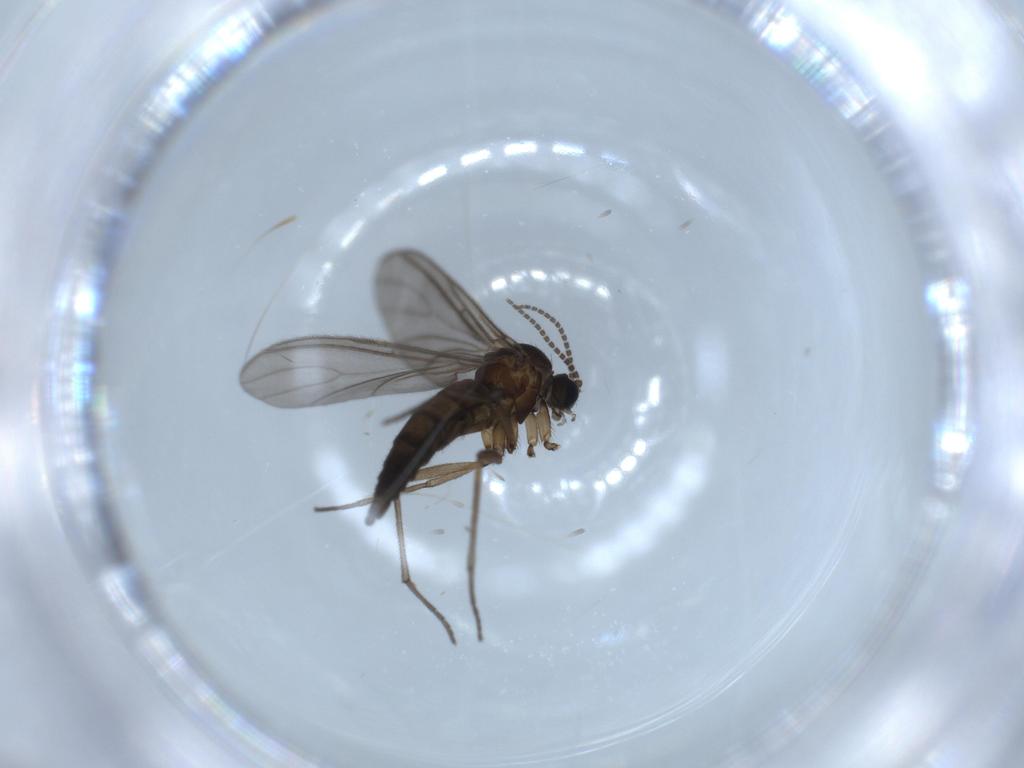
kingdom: Animalia
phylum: Arthropoda
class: Insecta
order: Diptera
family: Sciaridae
